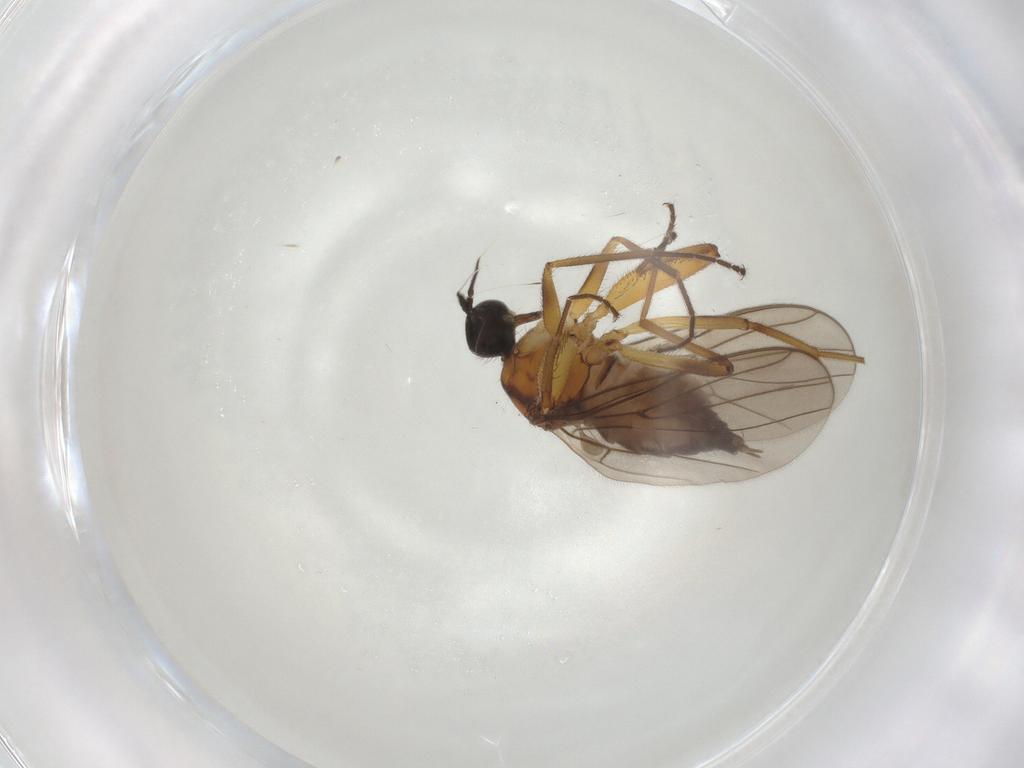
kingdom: Animalia
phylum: Arthropoda
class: Insecta
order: Diptera
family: Hybotidae
